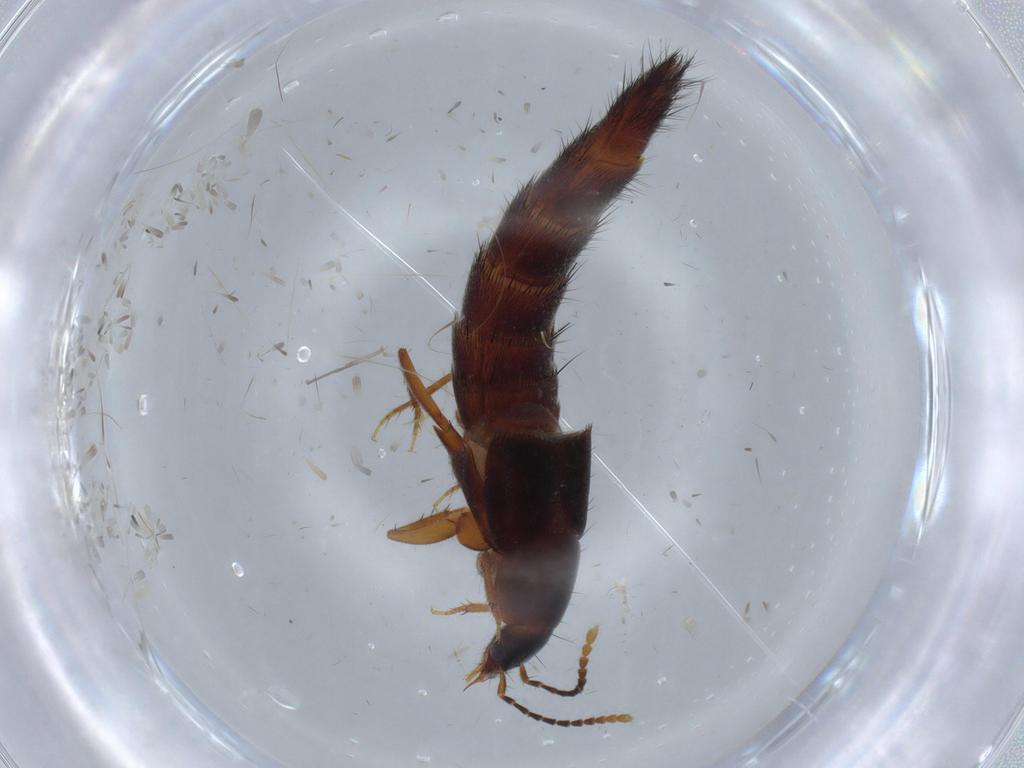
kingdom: Animalia
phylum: Arthropoda
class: Insecta
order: Coleoptera
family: Staphylinidae
